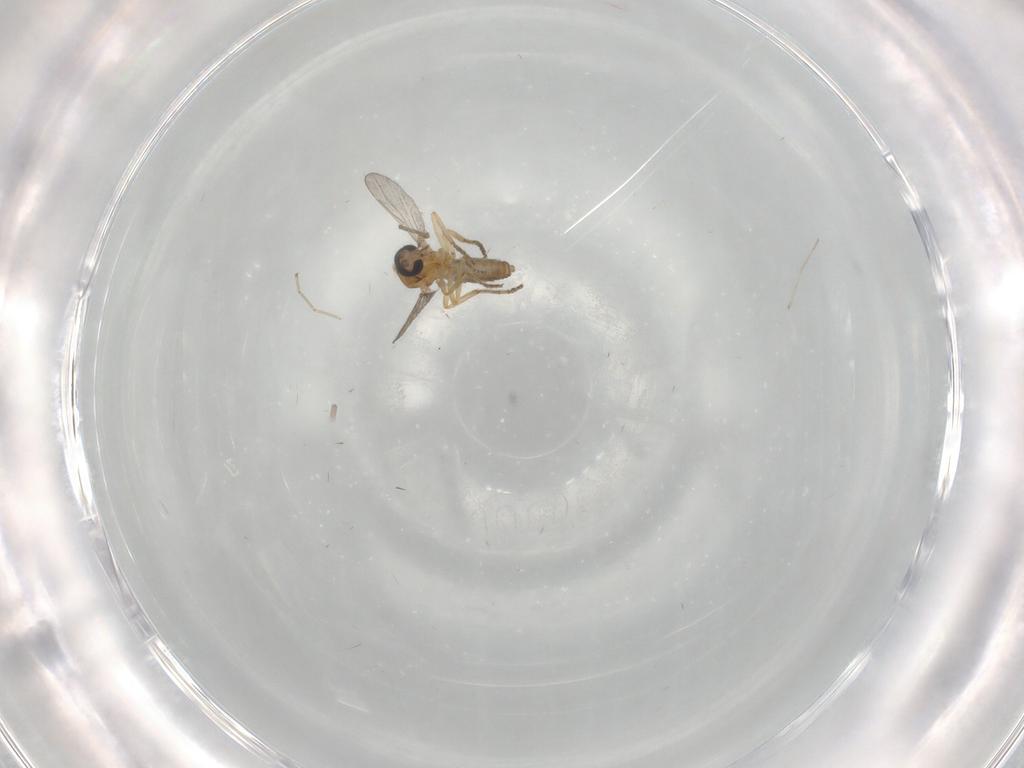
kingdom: Animalia
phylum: Arthropoda
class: Insecta
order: Diptera
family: Cecidomyiidae
